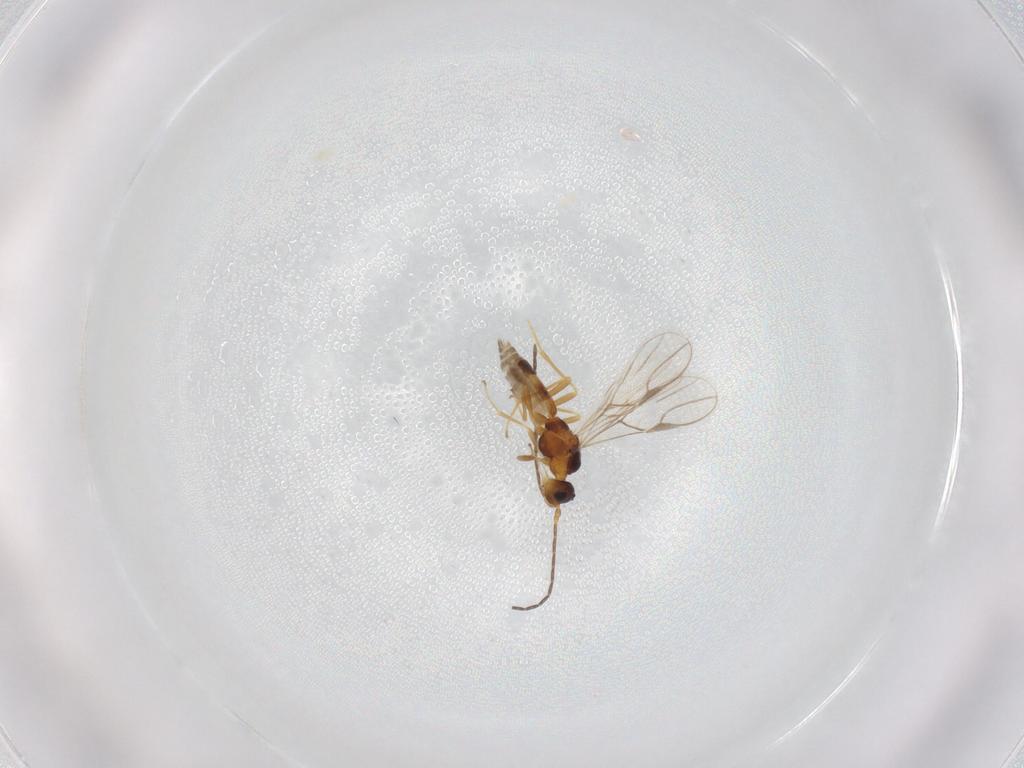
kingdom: Animalia
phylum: Arthropoda
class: Insecta
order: Hymenoptera
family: Braconidae
